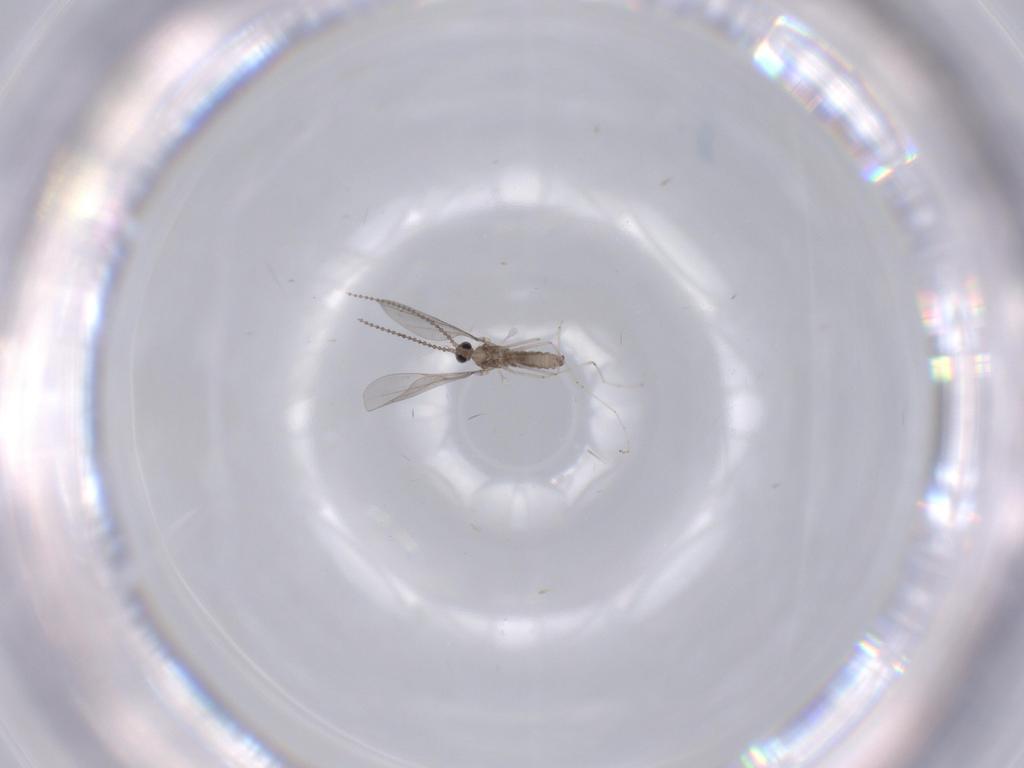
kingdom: Animalia
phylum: Arthropoda
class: Insecta
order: Diptera
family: Cecidomyiidae
